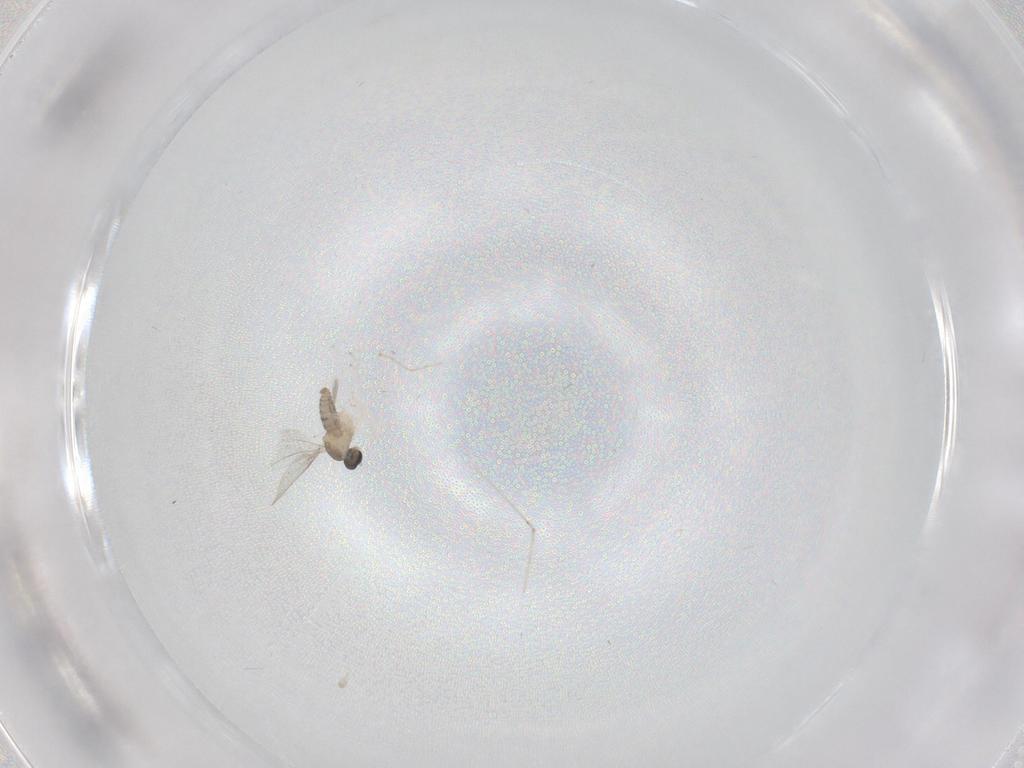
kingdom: Animalia
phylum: Arthropoda
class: Insecta
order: Diptera
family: Cecidomyiidae
